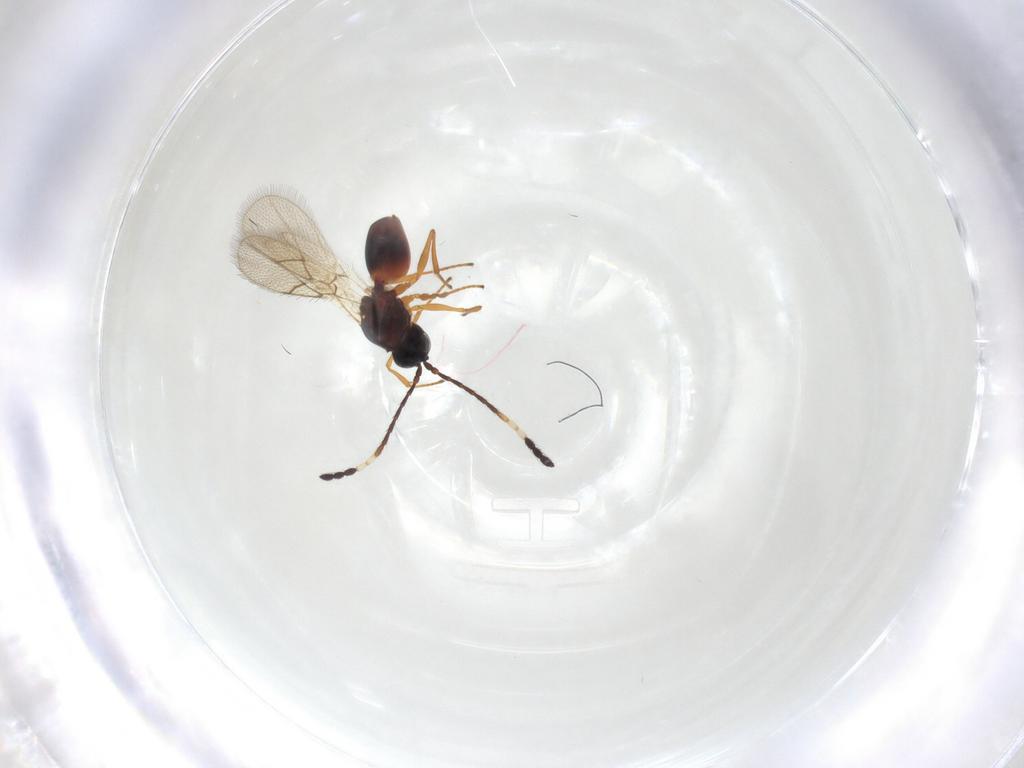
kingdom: Animalia
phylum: Arthropoda
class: Insecta
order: Hymenoptera
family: Figitidae
